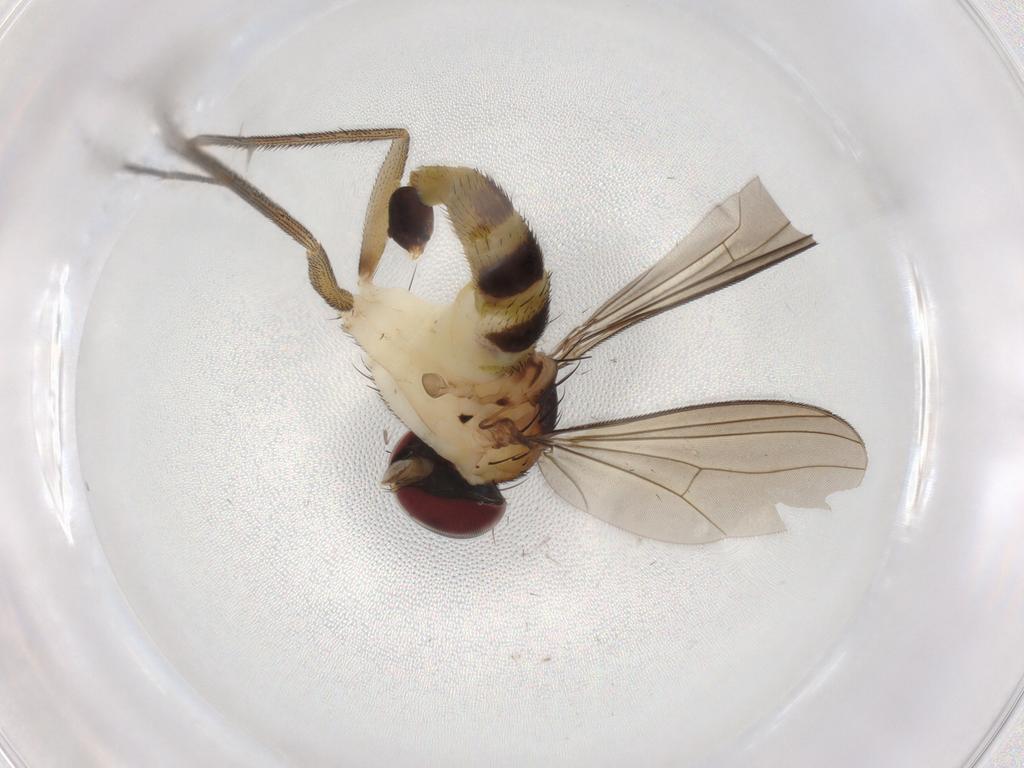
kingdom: Animalia
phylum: Arthropoda
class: Insecta
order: Diptera
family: Dolichopodidae
